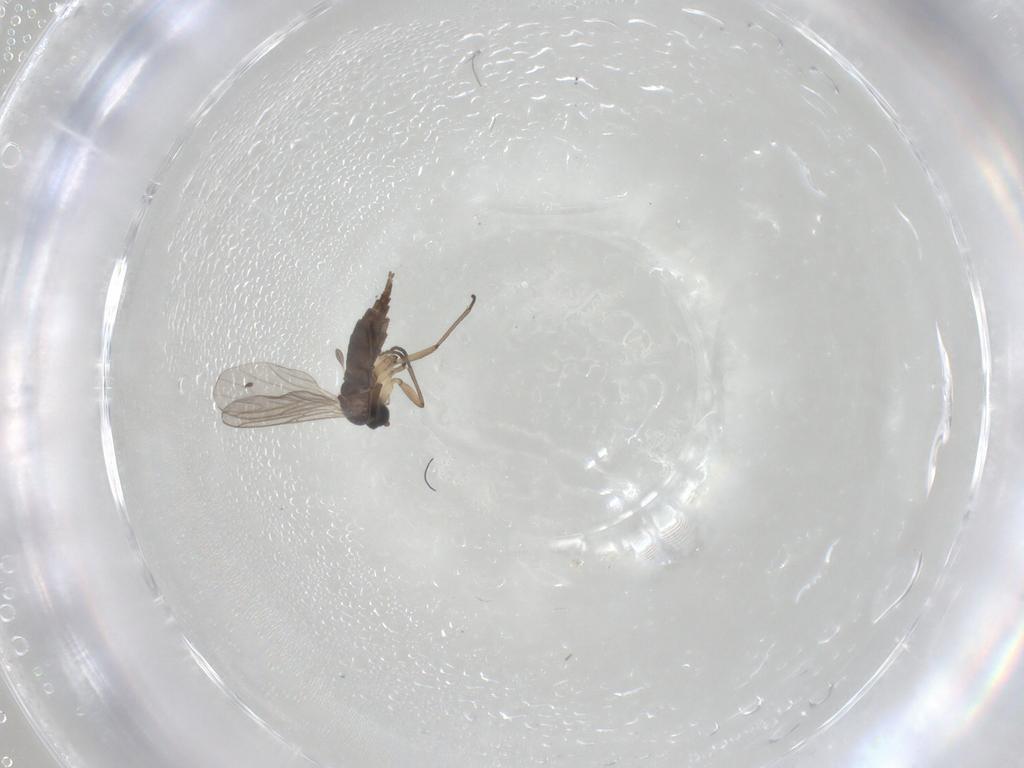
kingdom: Animalia
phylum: Arthropoda
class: Insecta
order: Diptera
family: Sciaridae
